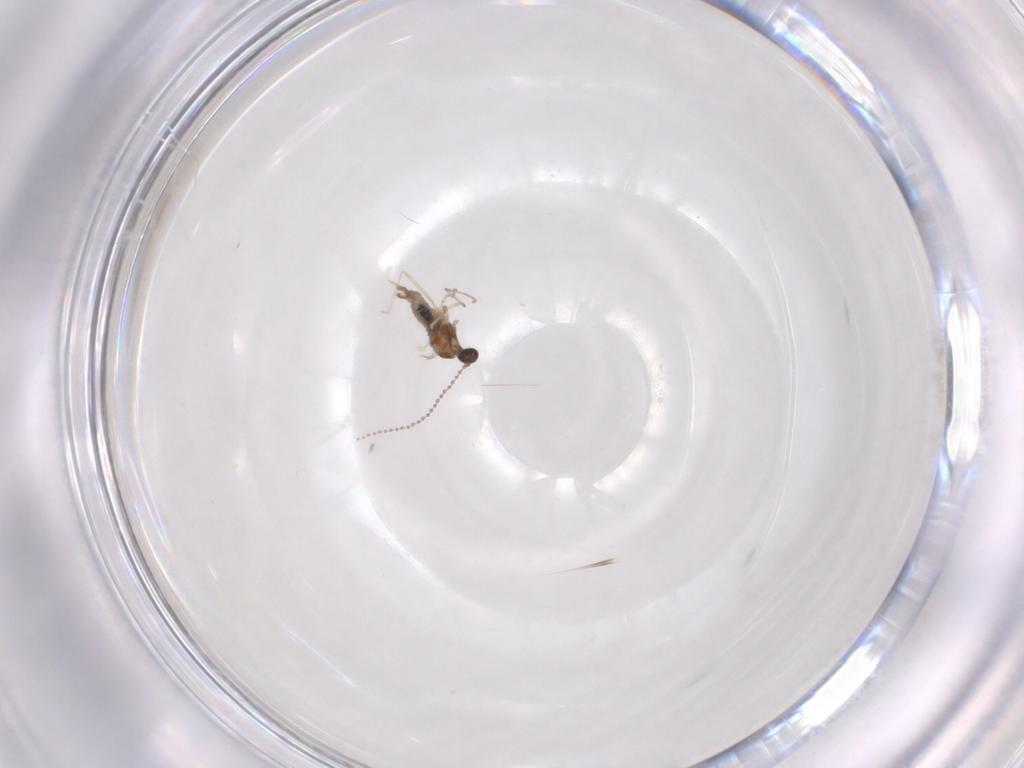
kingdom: Animalia
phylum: Arthropoda
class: Insecta
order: Diptera
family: Cecidomyiidae
